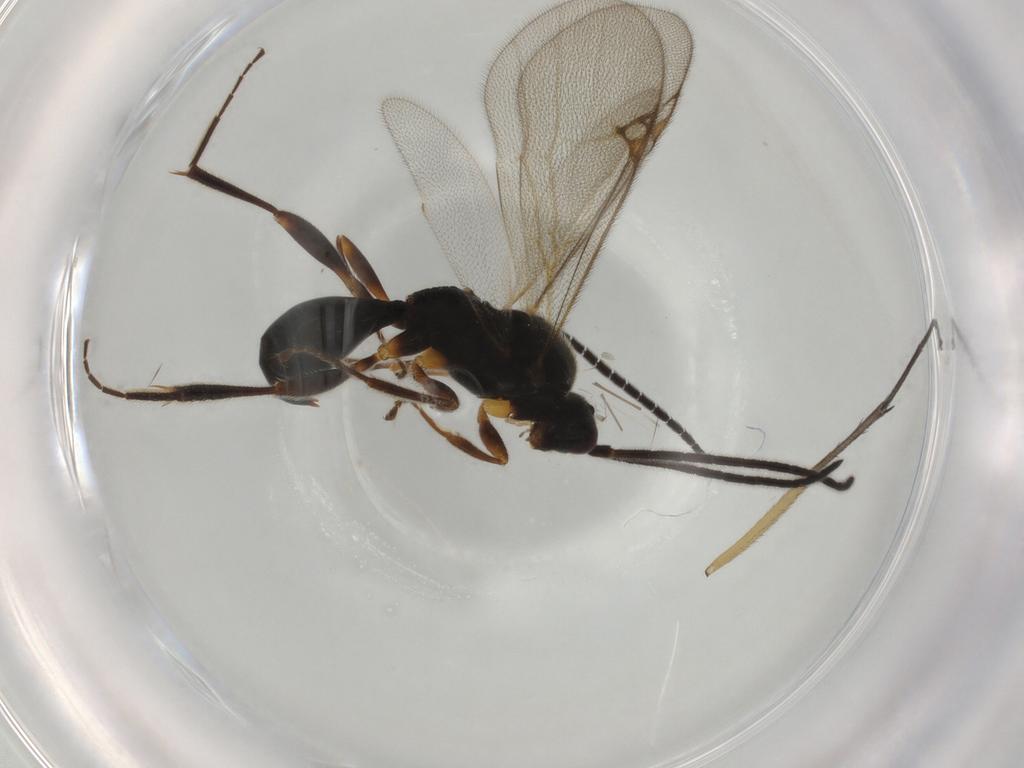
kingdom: Animalia
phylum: Arthropoda
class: Insecta
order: Hymenoptera
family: Proctotrupidae
